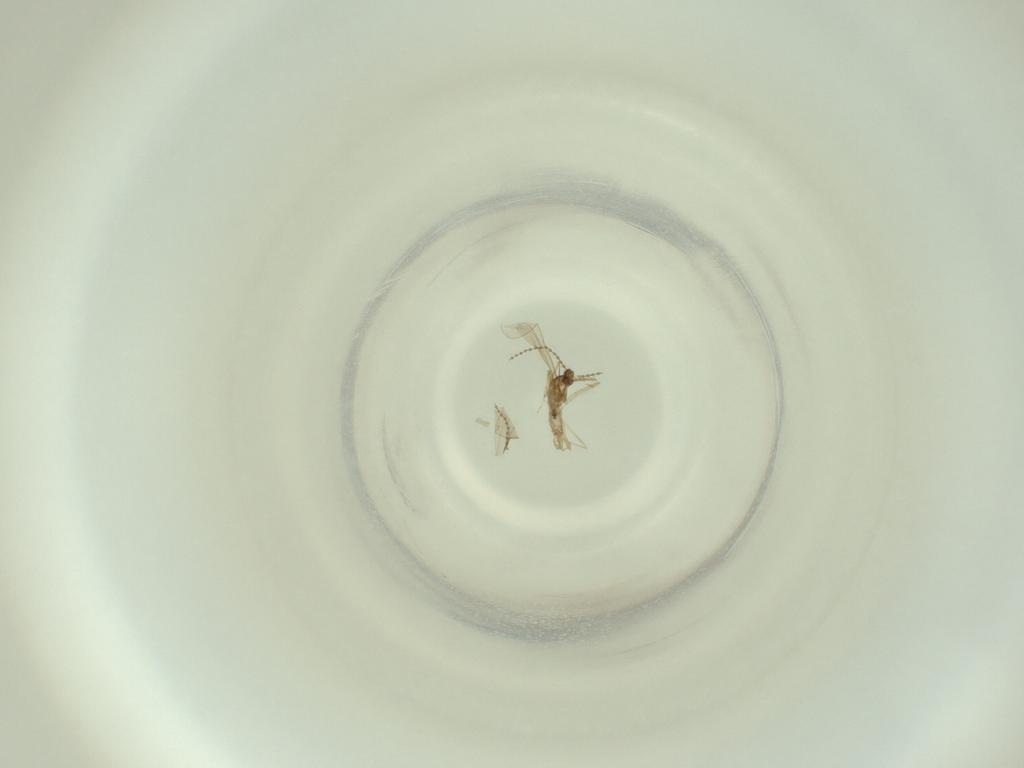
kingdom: Animalia
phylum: Arthropoda
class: Insecta
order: Diptera
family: Cecidomyiidae
